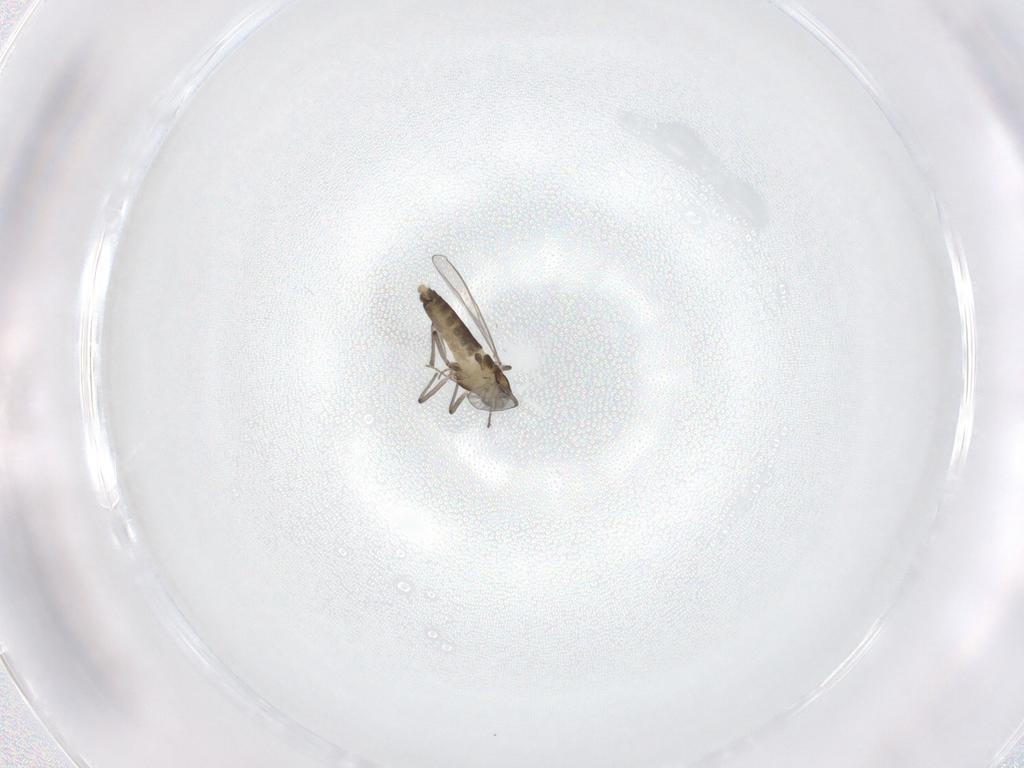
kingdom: Animalia
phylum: Arthropoda
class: Insecta
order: Diptera
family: Chironomidae
